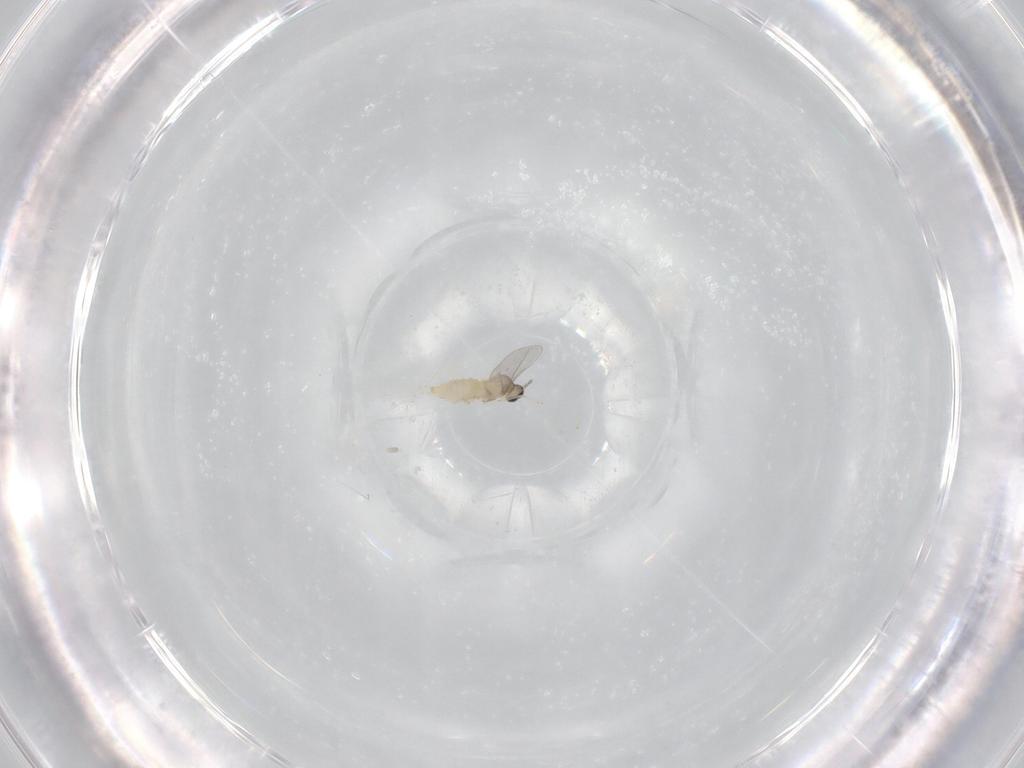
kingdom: Animalia
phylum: Arthropoda
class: Insecta
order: Diptera
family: Cecidomyiidae
